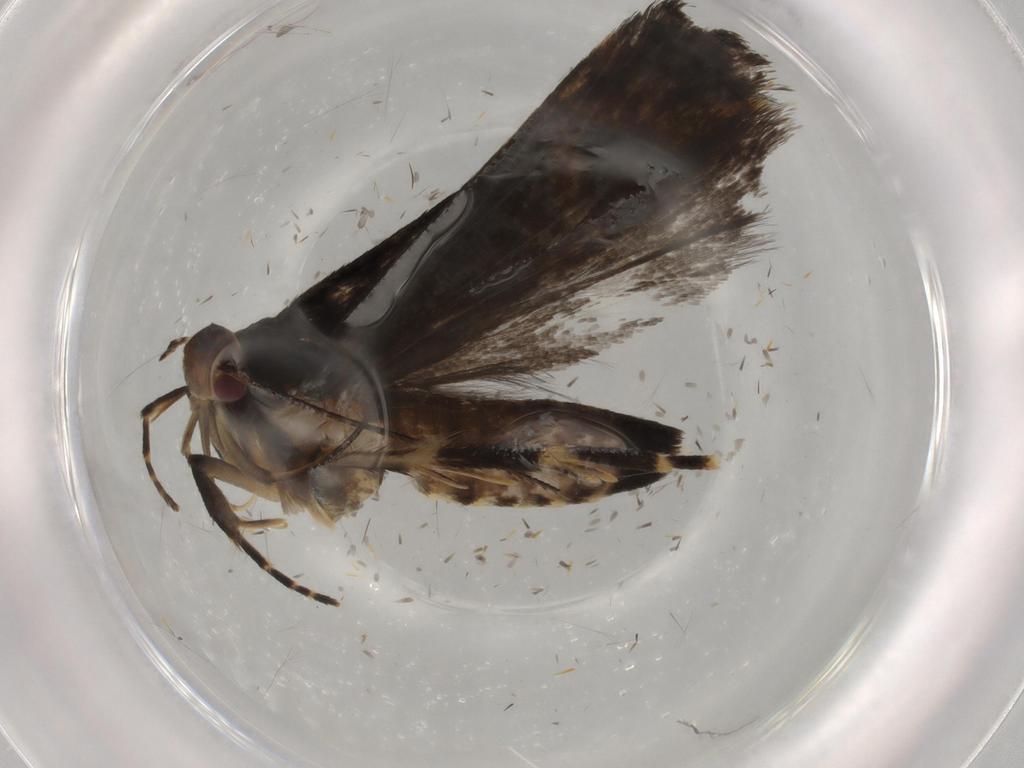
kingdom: Animalia
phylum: Arthropoda
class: Insecta
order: Lepidoptera
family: Gelechiidae
